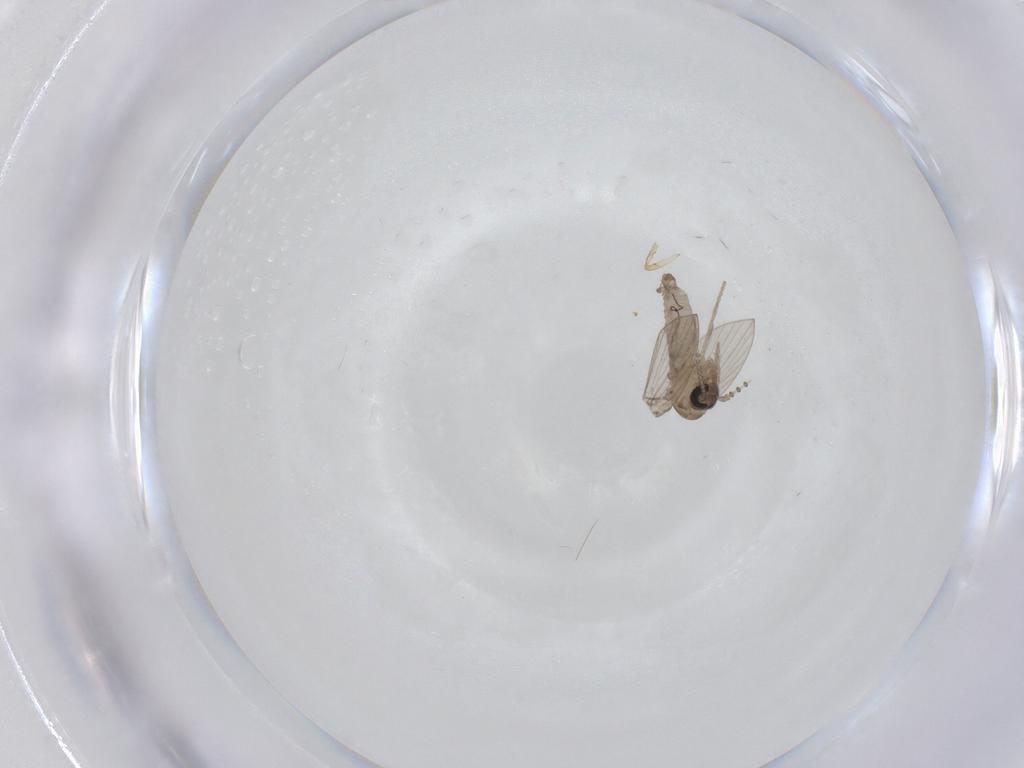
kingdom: Animalia
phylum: Arthropoda
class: Insecta
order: Diptera
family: Psychodidae
